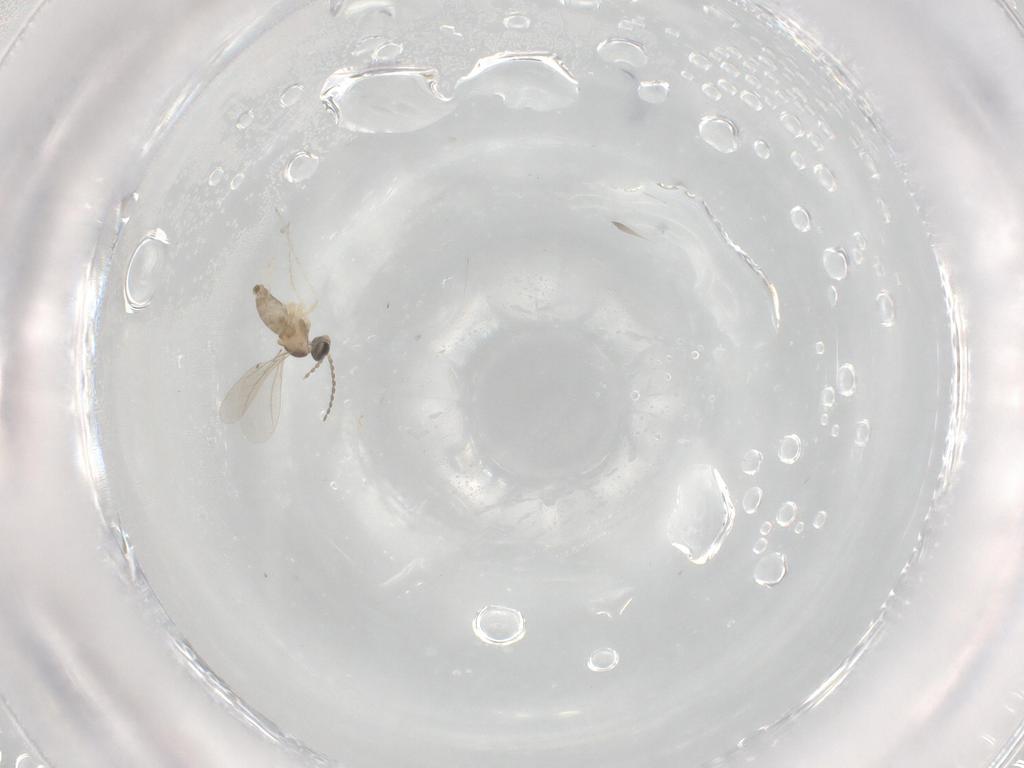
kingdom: Animalia
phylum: Arthropoda
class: Insecta
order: Diptera
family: Cecidomyiidae
